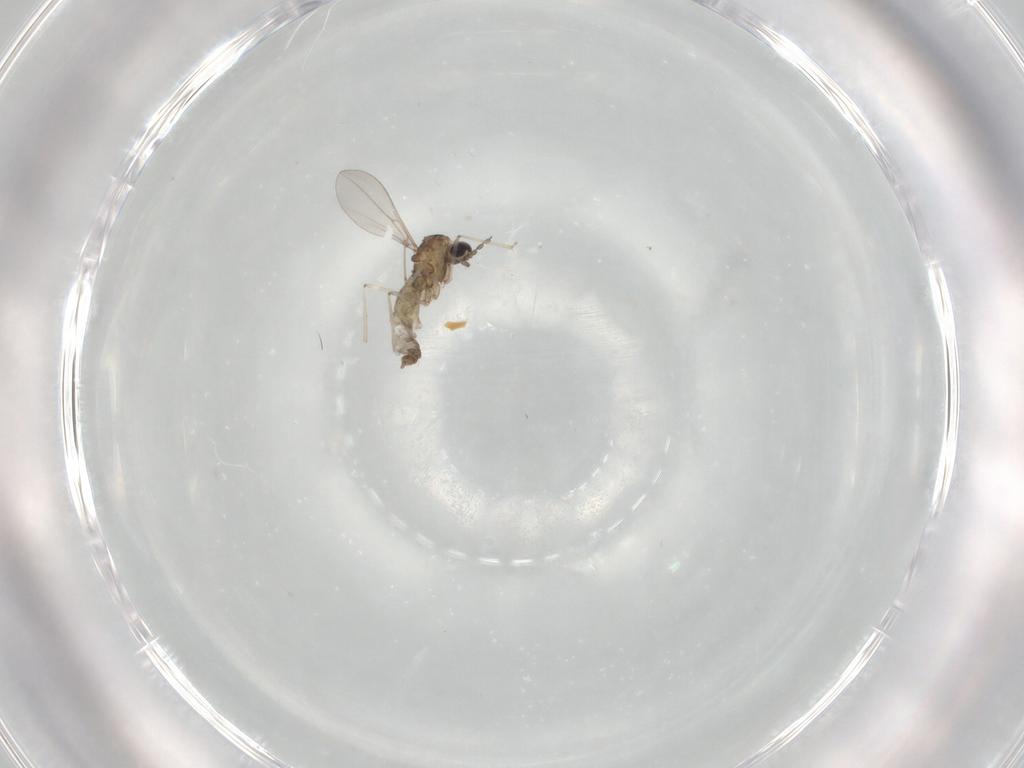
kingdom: Animalia
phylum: Arthropoda
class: Insecta
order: Diptera
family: Cecidomyiidae
